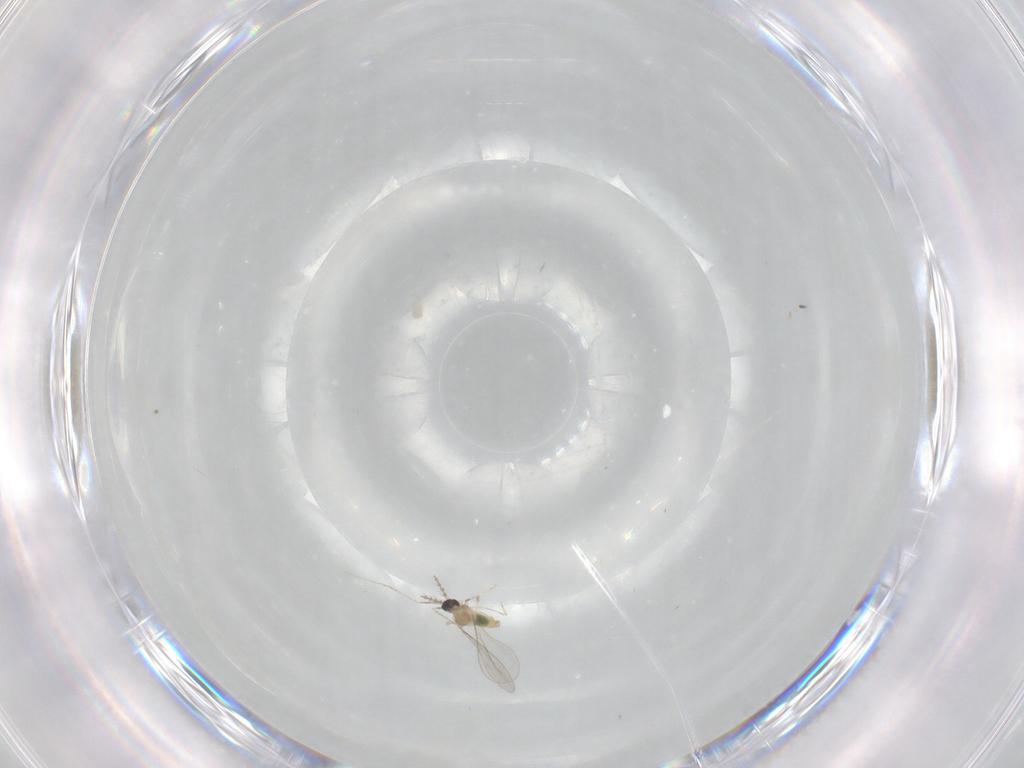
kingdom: Animalia
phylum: Arthropoda
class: Insecta
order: Diptera
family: Cecidomyiidae
